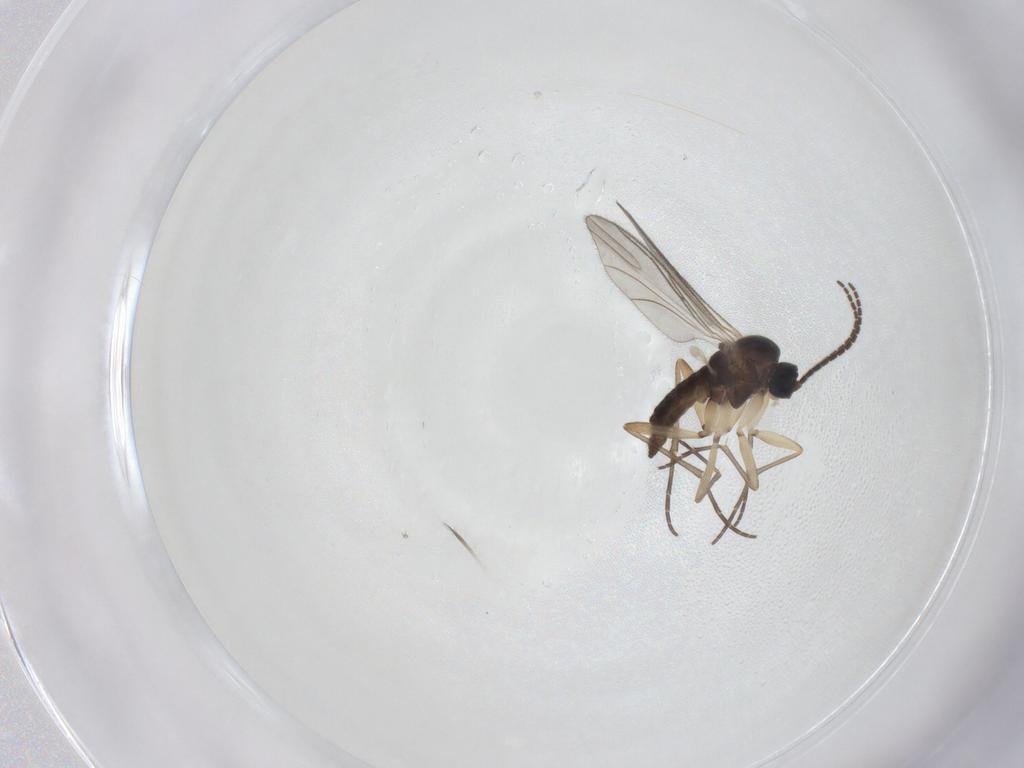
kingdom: Animalia
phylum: Arthropoda
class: Insecta
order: Diptera
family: Sciaridae
